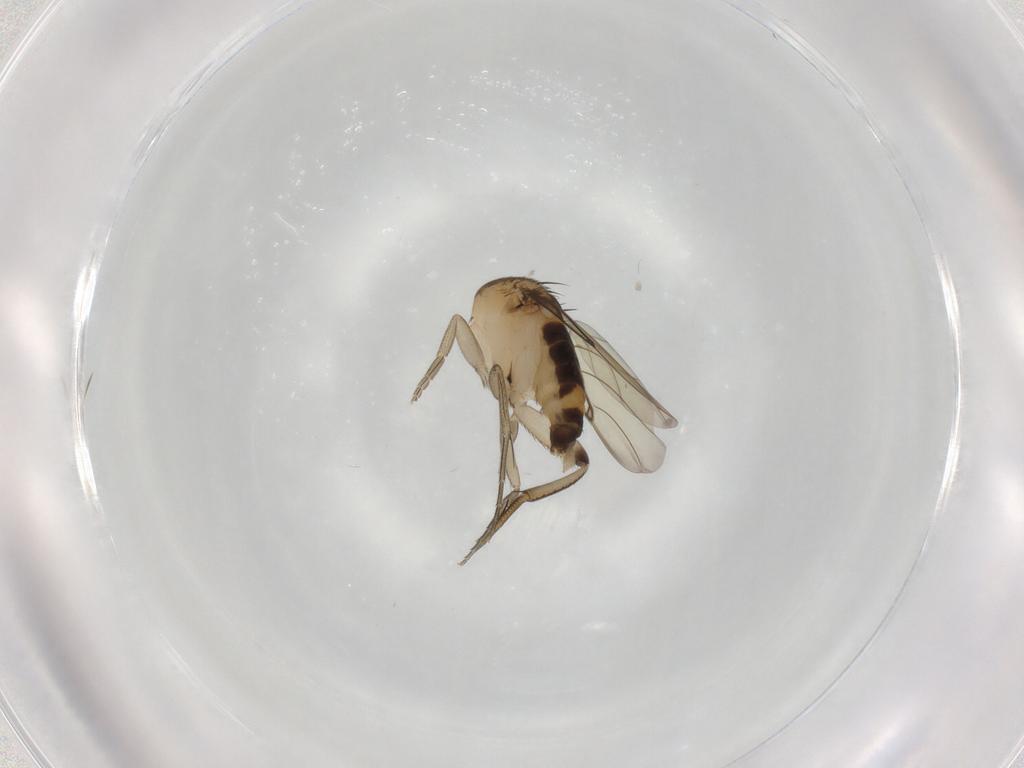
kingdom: Animalia
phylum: Arthropoda
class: Insecta
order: Diptera
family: Phoridae
